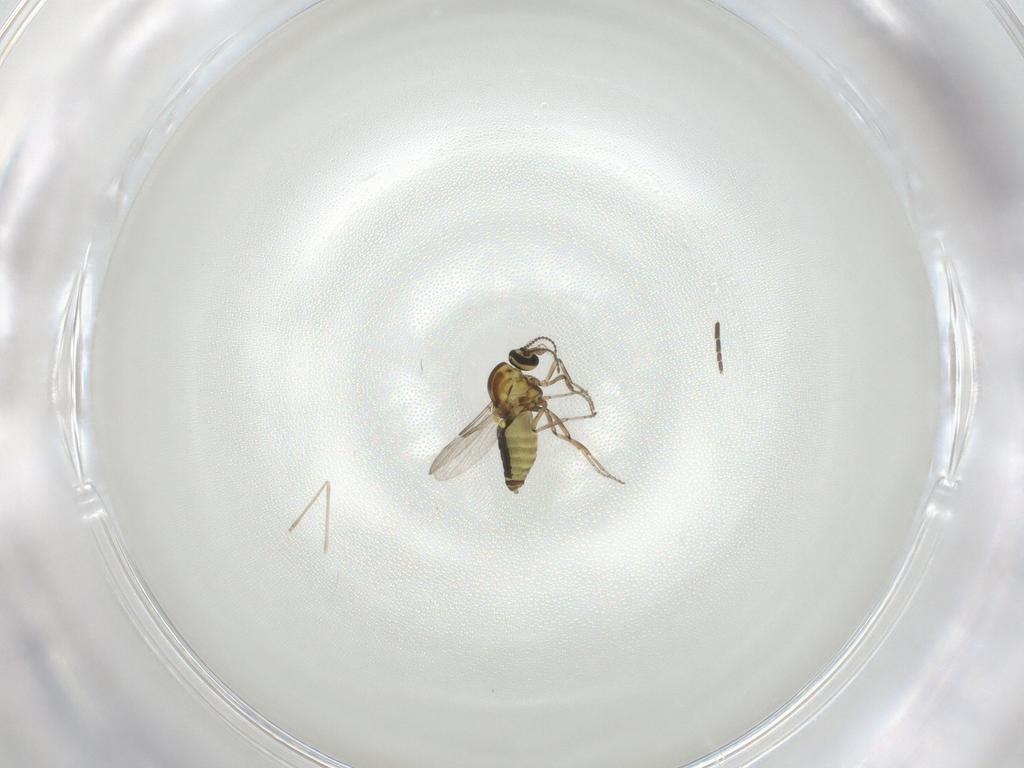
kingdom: Animalia
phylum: Arthropoda
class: Insecta
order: Diptera
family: Ceratopogonidae
